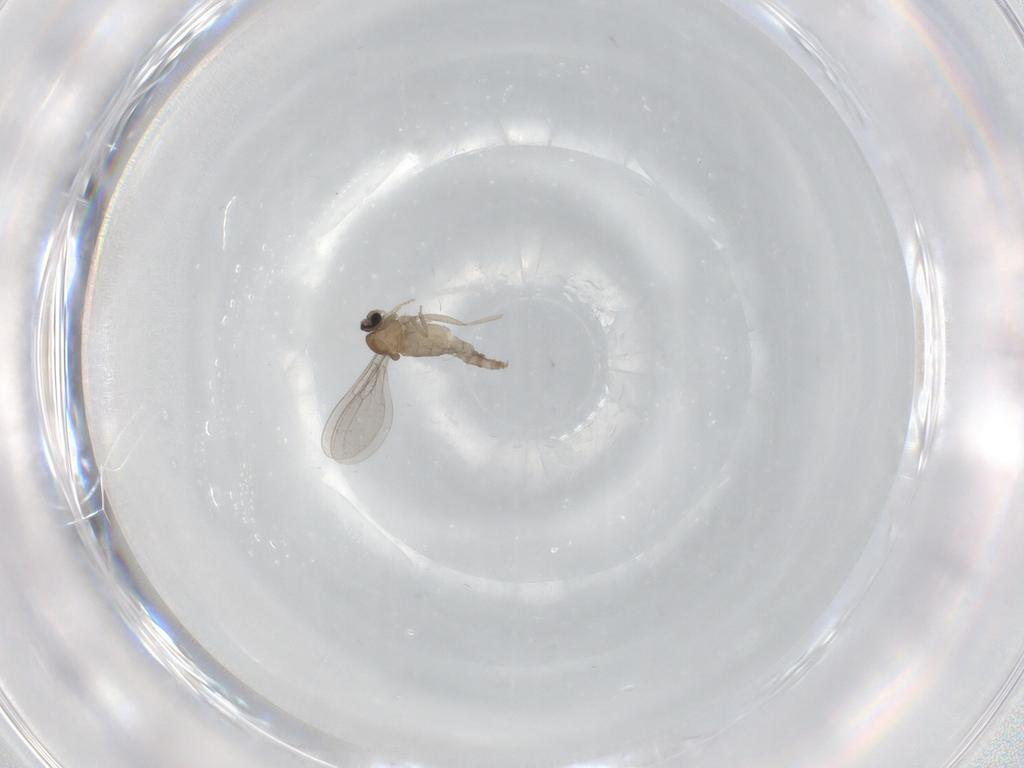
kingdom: Animalia
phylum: Arthropoda
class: Insecta
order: Diptera
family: Cecidomyiidae
